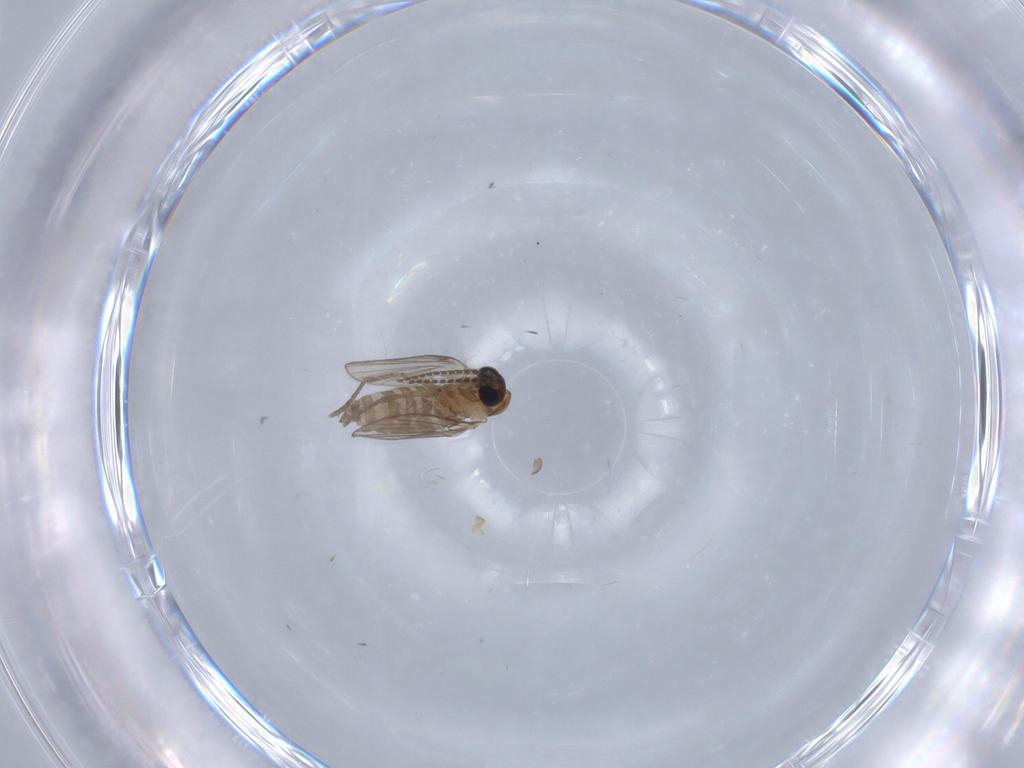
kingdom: Animalia
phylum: Arthropoda
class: Insecta
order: Diptera
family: Psychodidae
